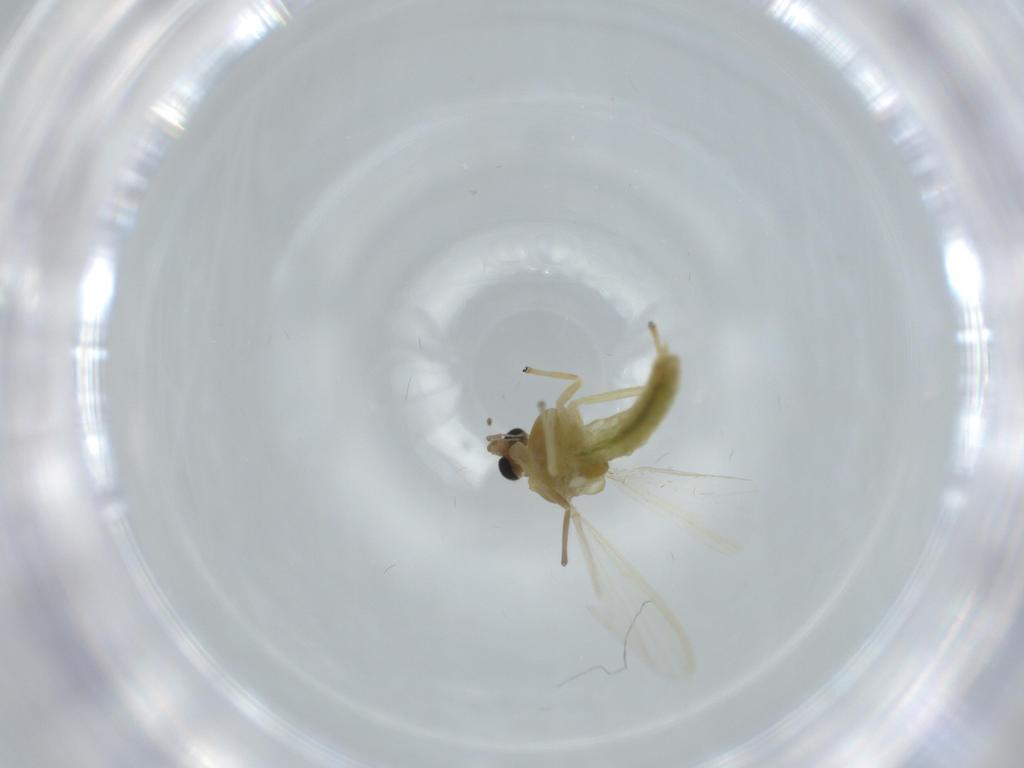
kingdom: Animalia
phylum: Arthropoda
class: Insecta
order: Diptera
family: Chironomidae
